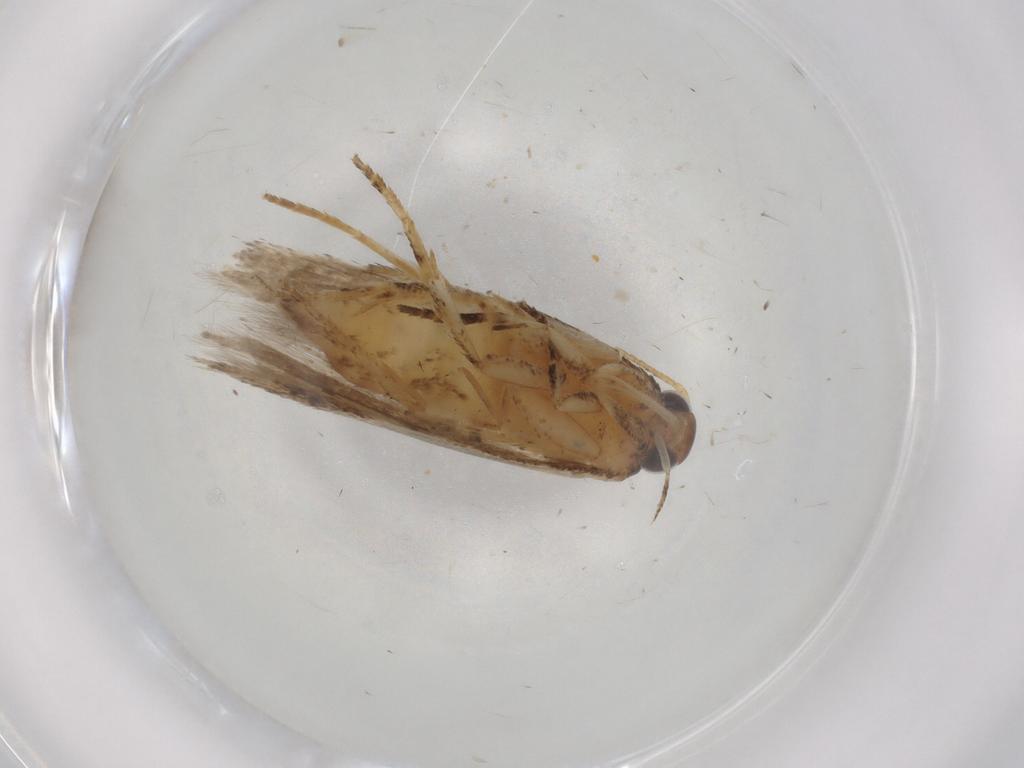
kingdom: Animalia
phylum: Arthropoda
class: Insecta
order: Lepidoptera
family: Gelechiidae
